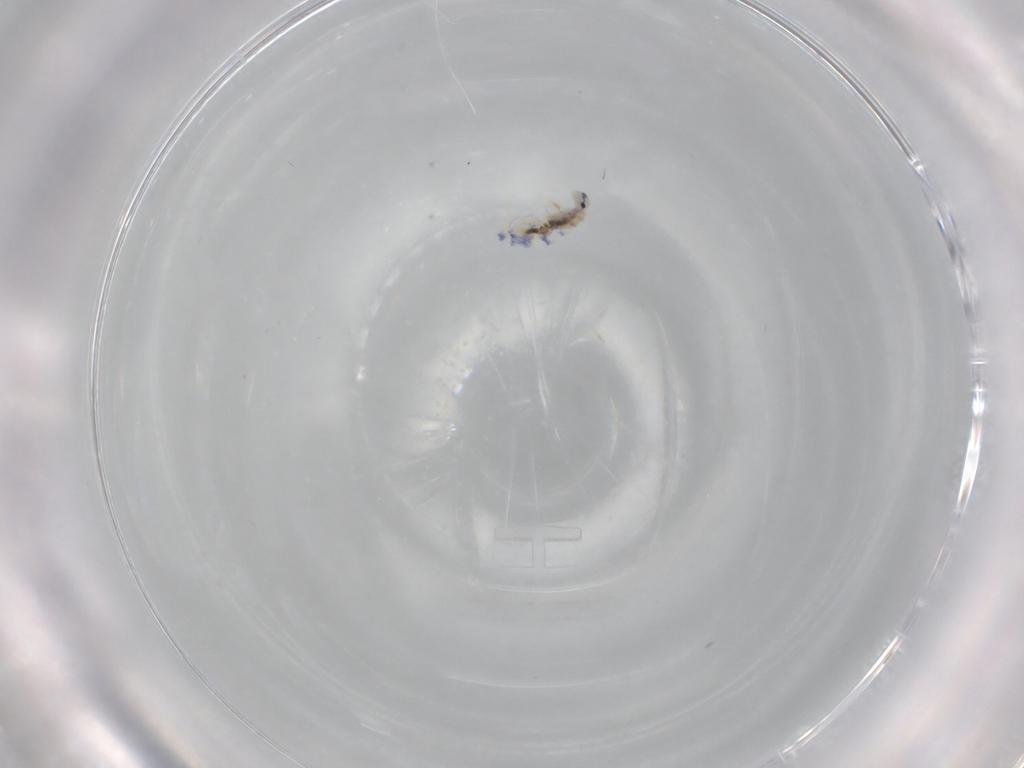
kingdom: Animalia
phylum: Arthropoda
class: Collembola
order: Entomobryomorpha
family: Entomobryidae
